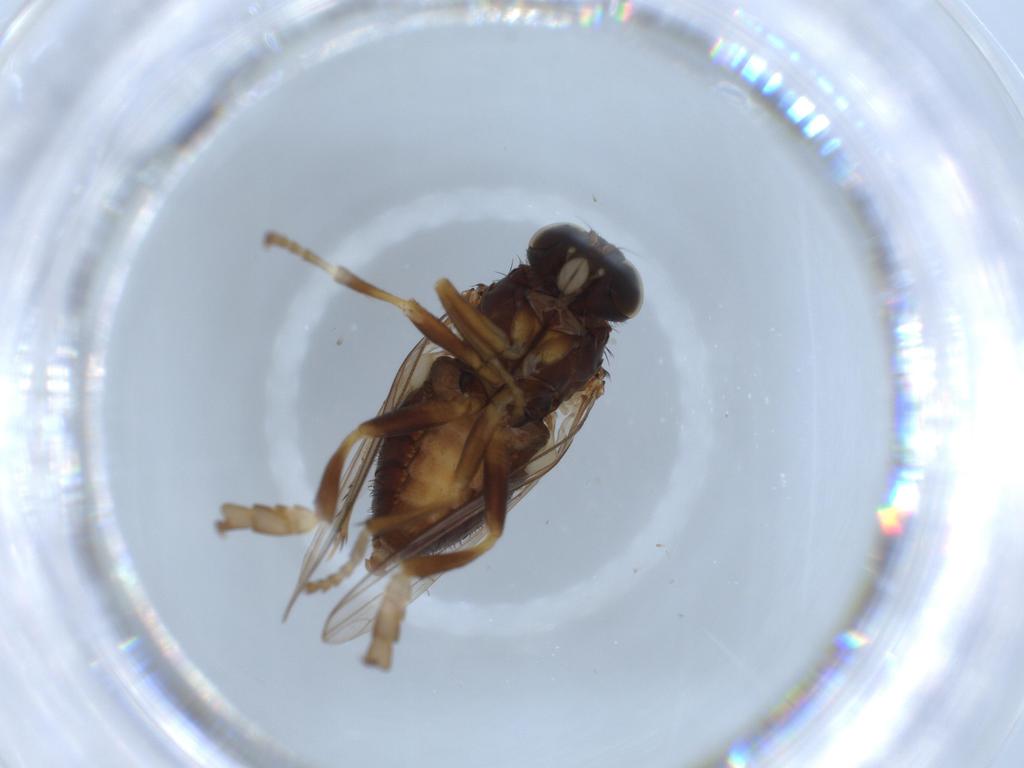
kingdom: Animalia
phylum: Arthropoda
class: Insecta
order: Diptera
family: Platypezidae
